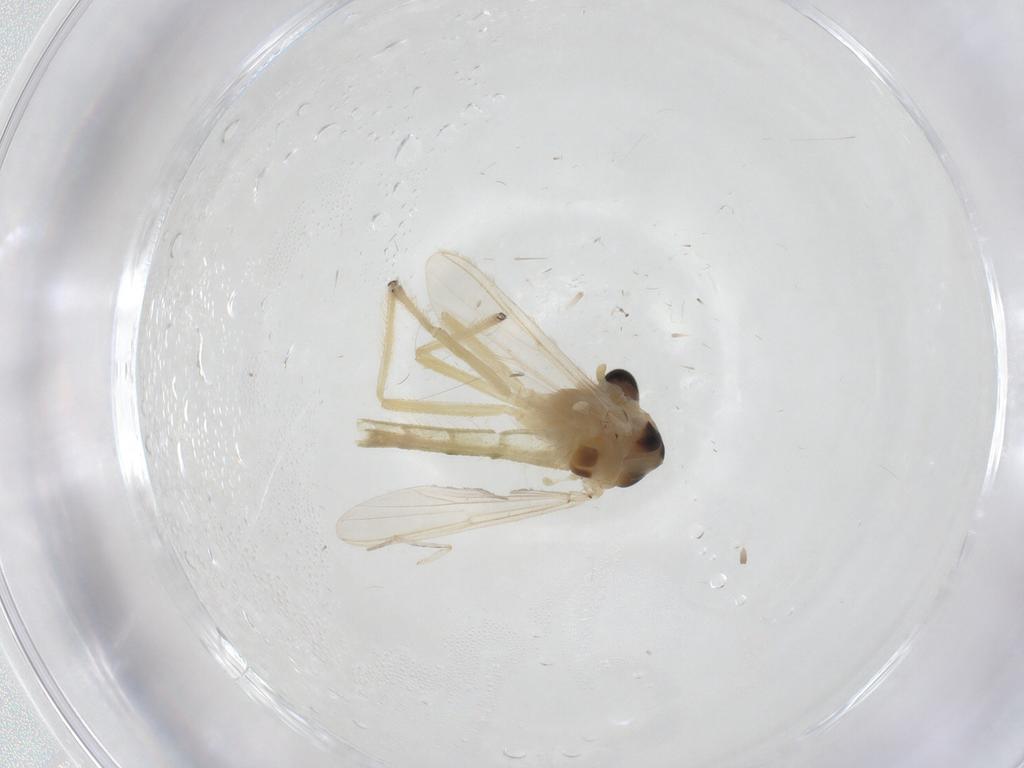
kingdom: Animalia
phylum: Arthropoda
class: Insecta
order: Diptera
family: Chironomidae
